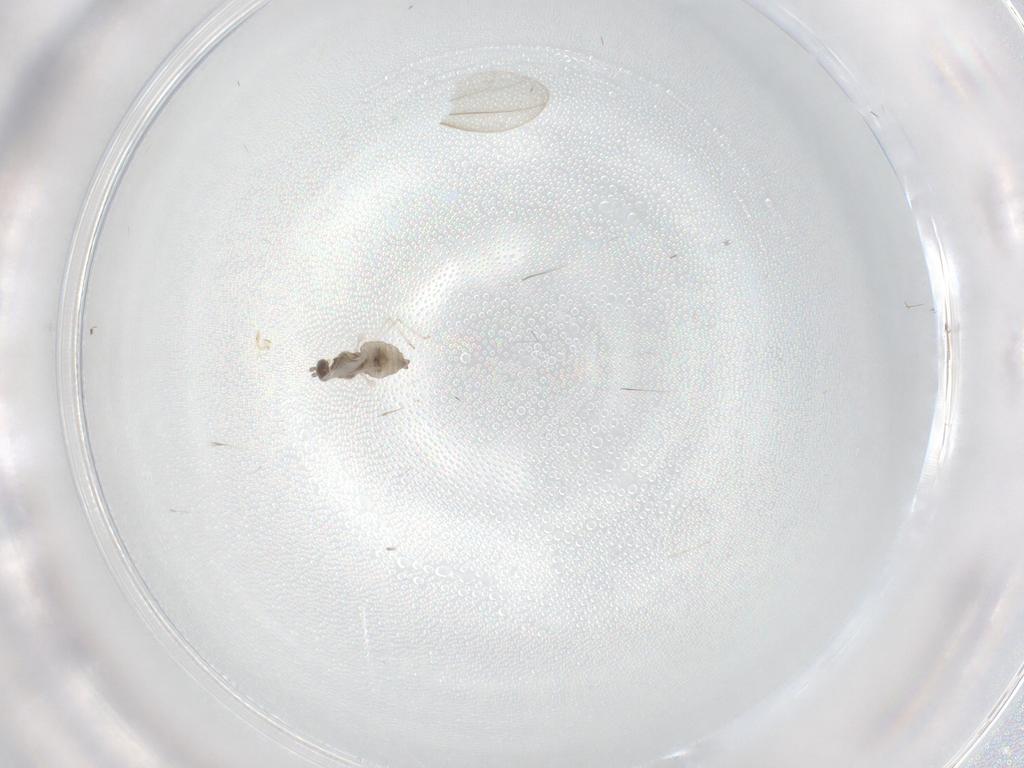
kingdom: Animalia
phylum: Arthropoda
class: Insecta
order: Diptera
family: Cecidomyiidae
